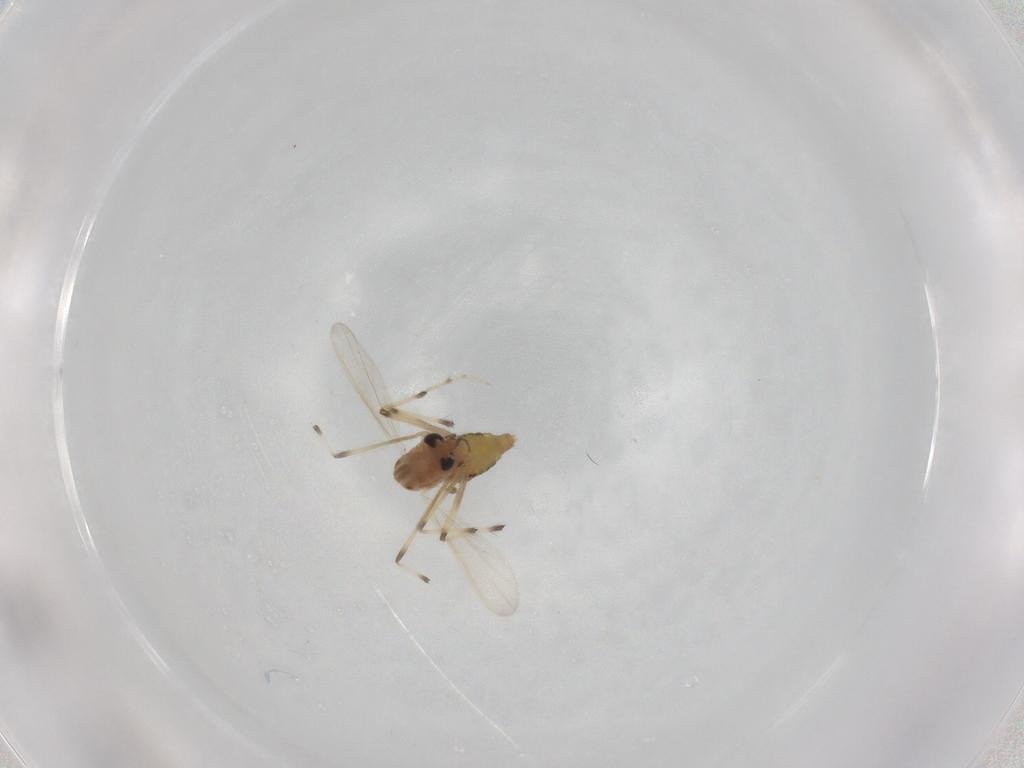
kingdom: Animalia
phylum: Arthropoda
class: Insecta
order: Diptera
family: Chironomidae
